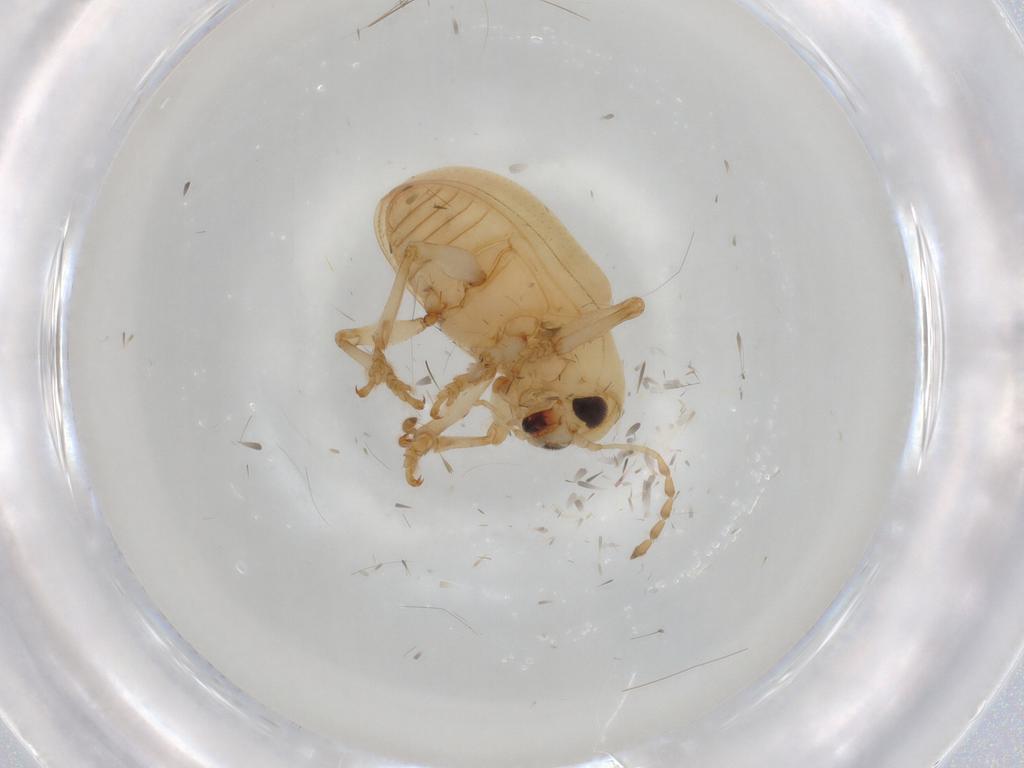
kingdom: Animalia
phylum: Arthropoda
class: Insecta
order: Coleoptera
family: Chrysomelidae
